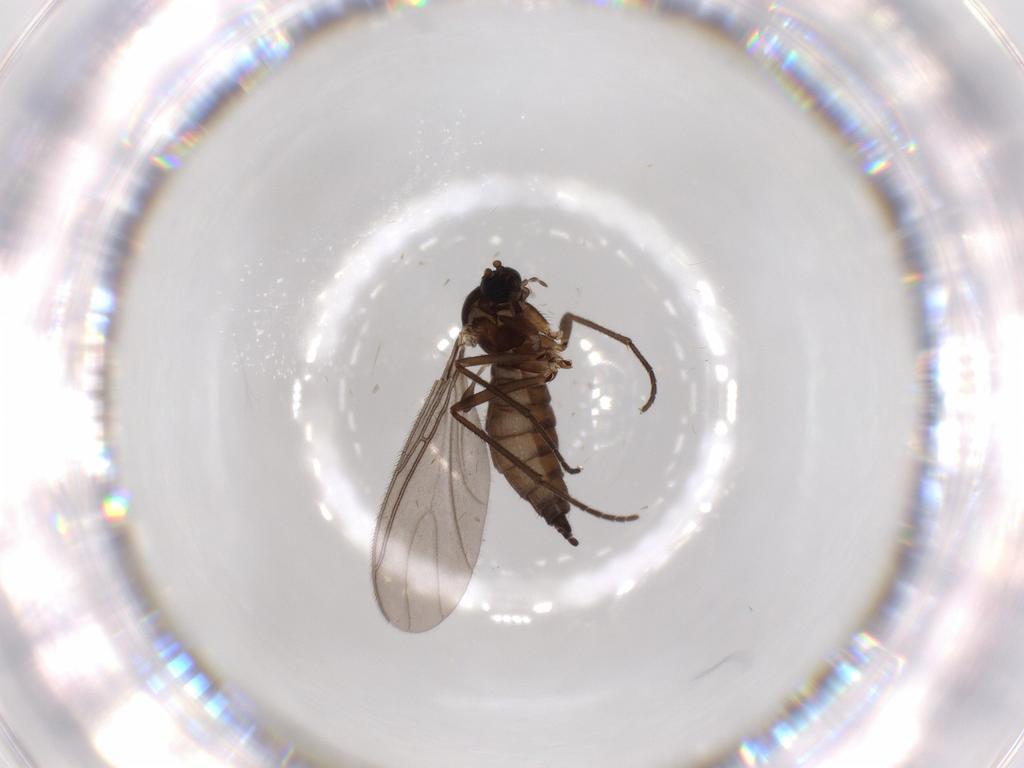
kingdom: Animalia
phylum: Arthropoda
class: Insecta
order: Diptera
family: Sciaridae
